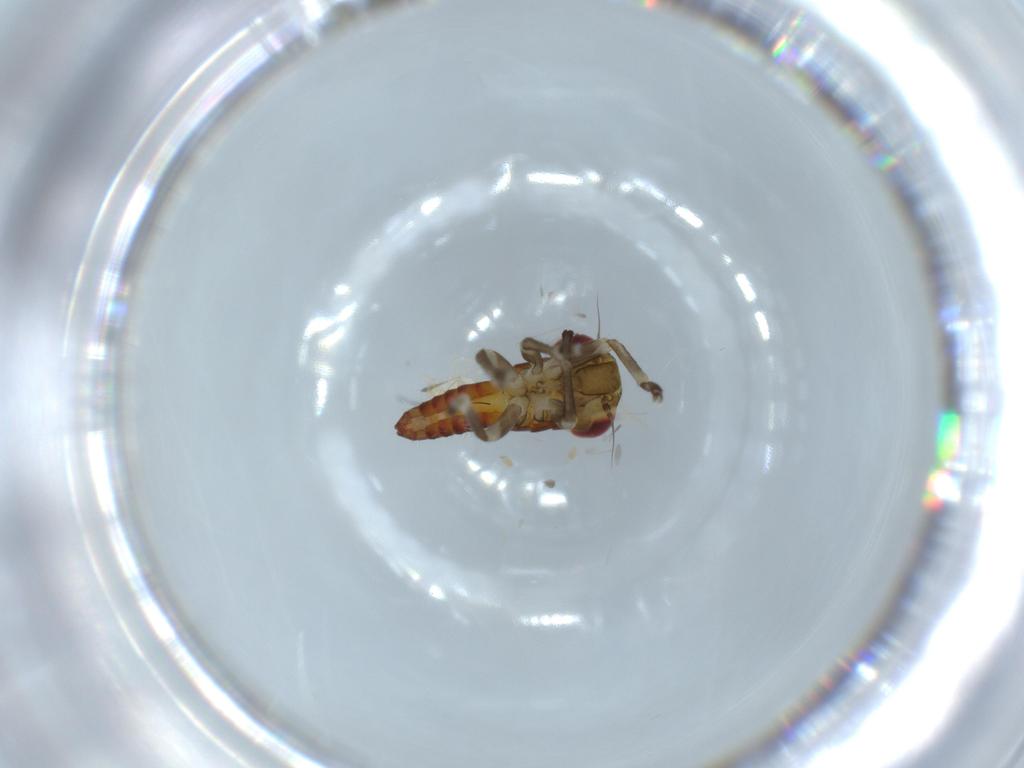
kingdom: Animalia
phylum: Arthropoda
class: Insecta
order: Hemiptera
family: Cicadellidae
